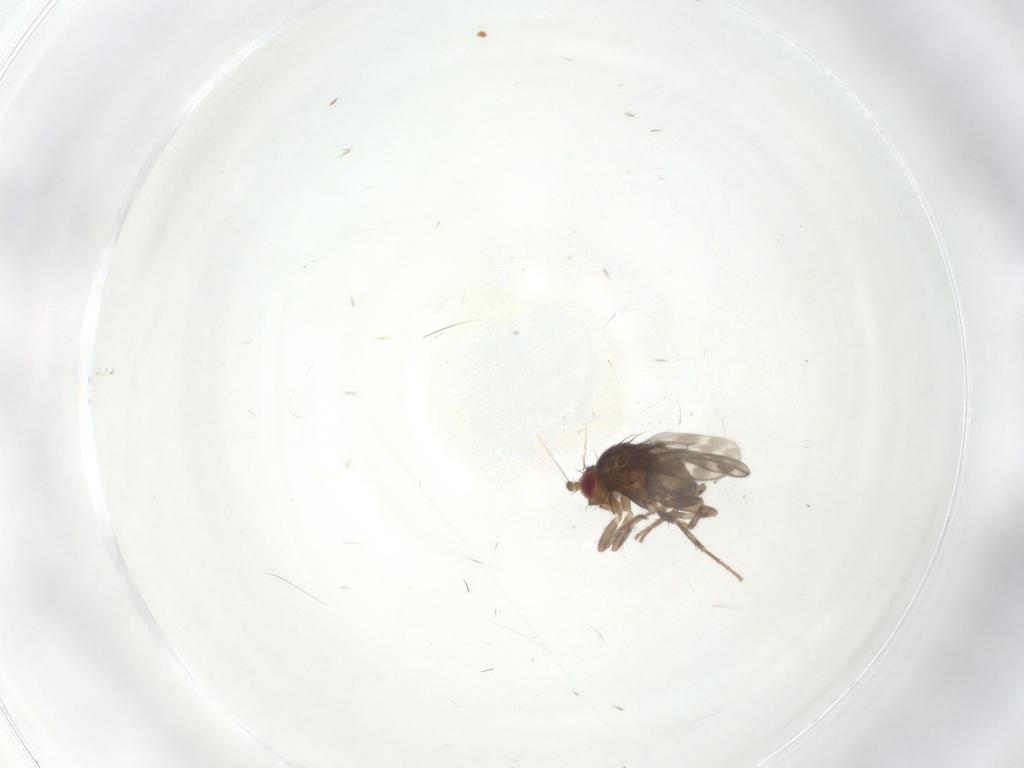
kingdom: Animalia
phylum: Arthropoda
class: Insecta
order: Diptera
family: Sphaeroceridae
